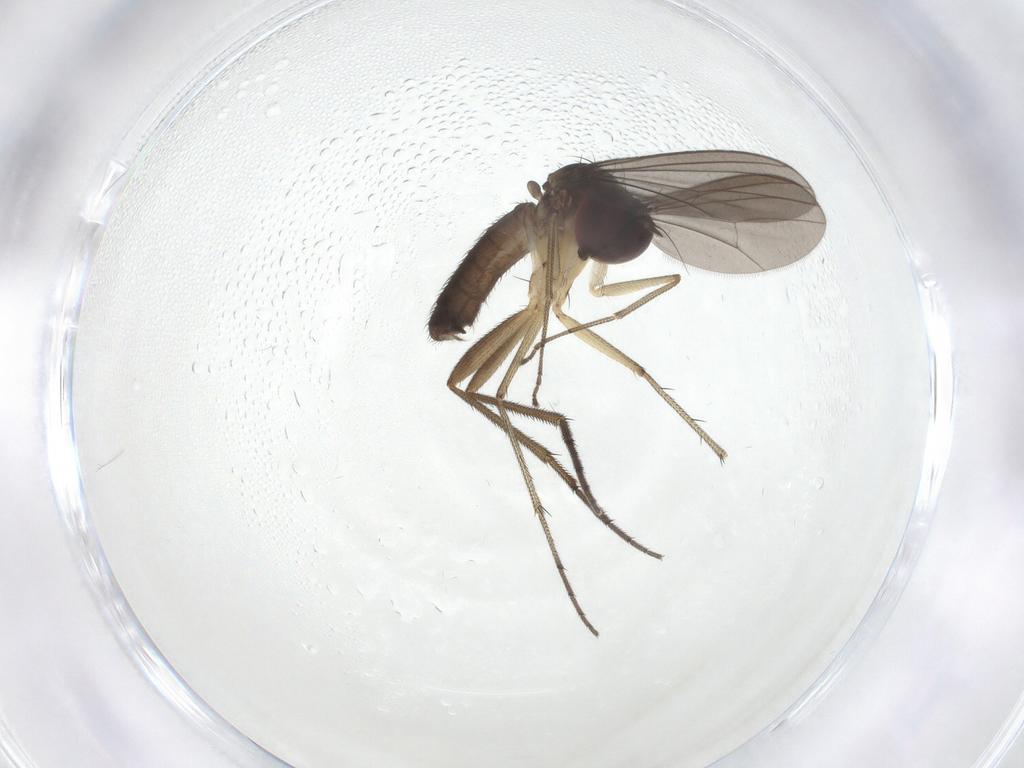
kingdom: Animalia
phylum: Arthropoda
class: Insecta
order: Diptera
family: Dolichopodidae
